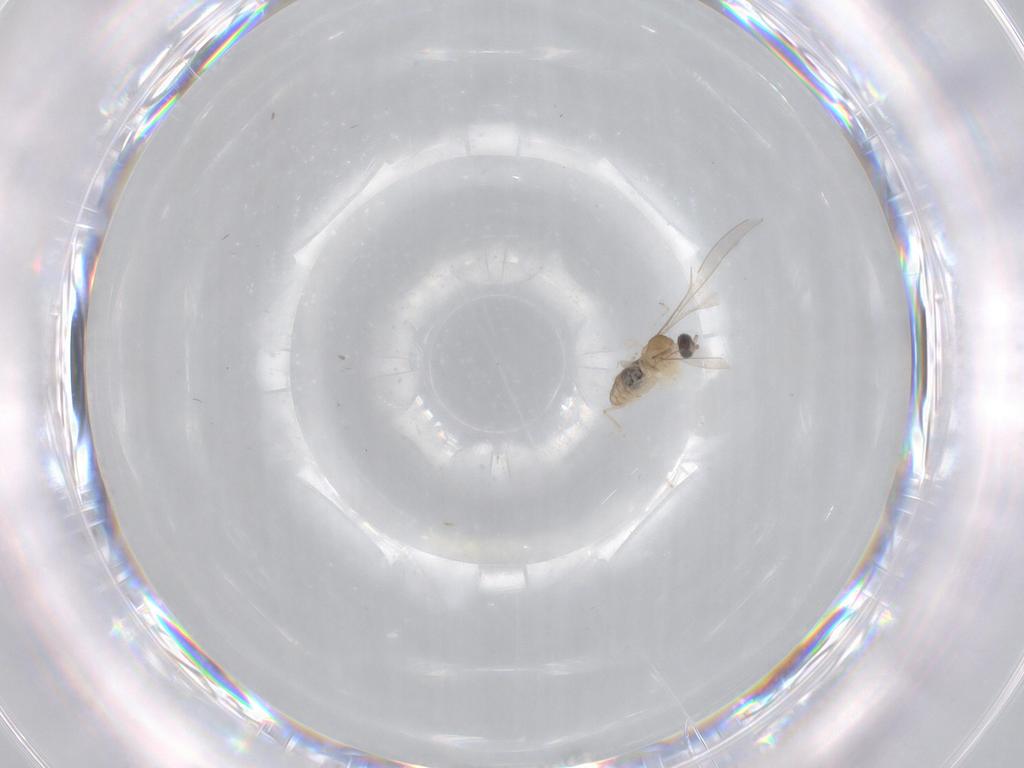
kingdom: Animalia
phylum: Arthropoda
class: Insecta
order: Diptera
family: Cecidomyiidae
